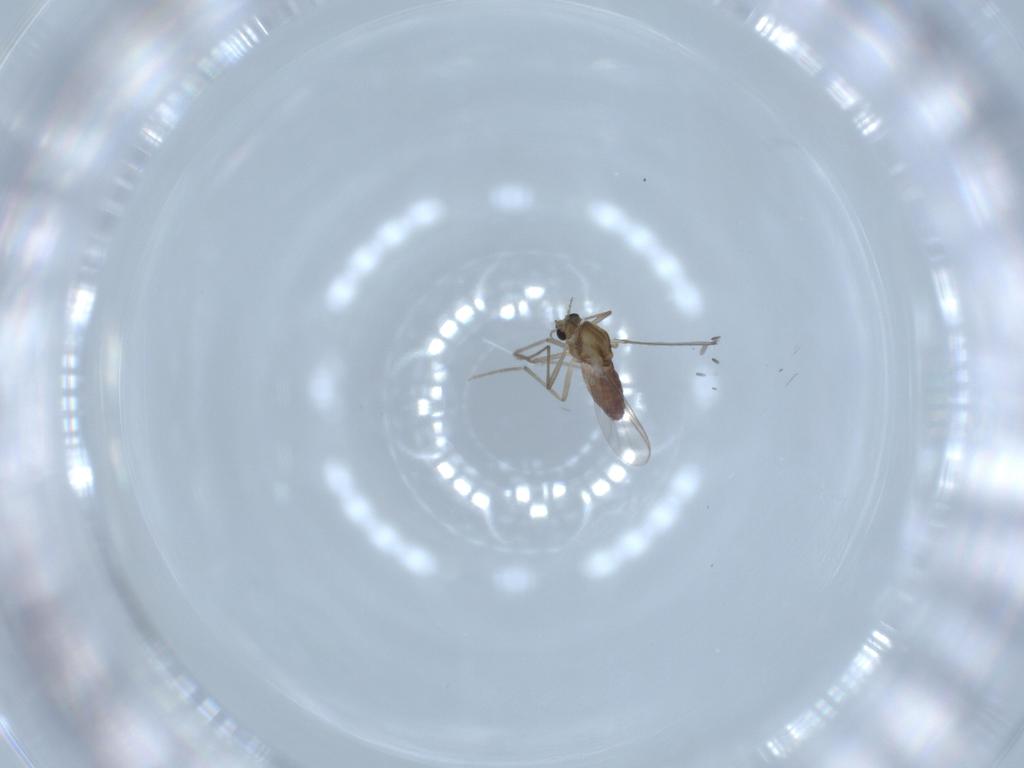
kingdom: Animalia
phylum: Arthropoda
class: Insecta
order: Diptera
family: Chironomidae
